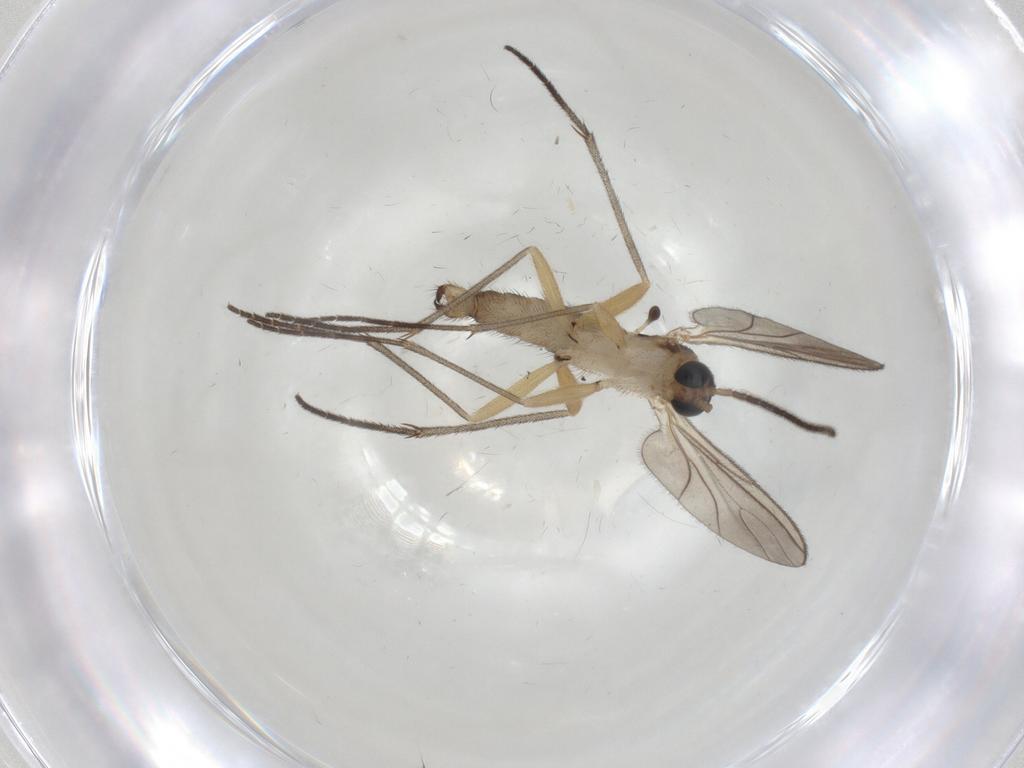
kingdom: Animalia
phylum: Arthropoda
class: Insecta
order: Diptera
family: Sciaridae
